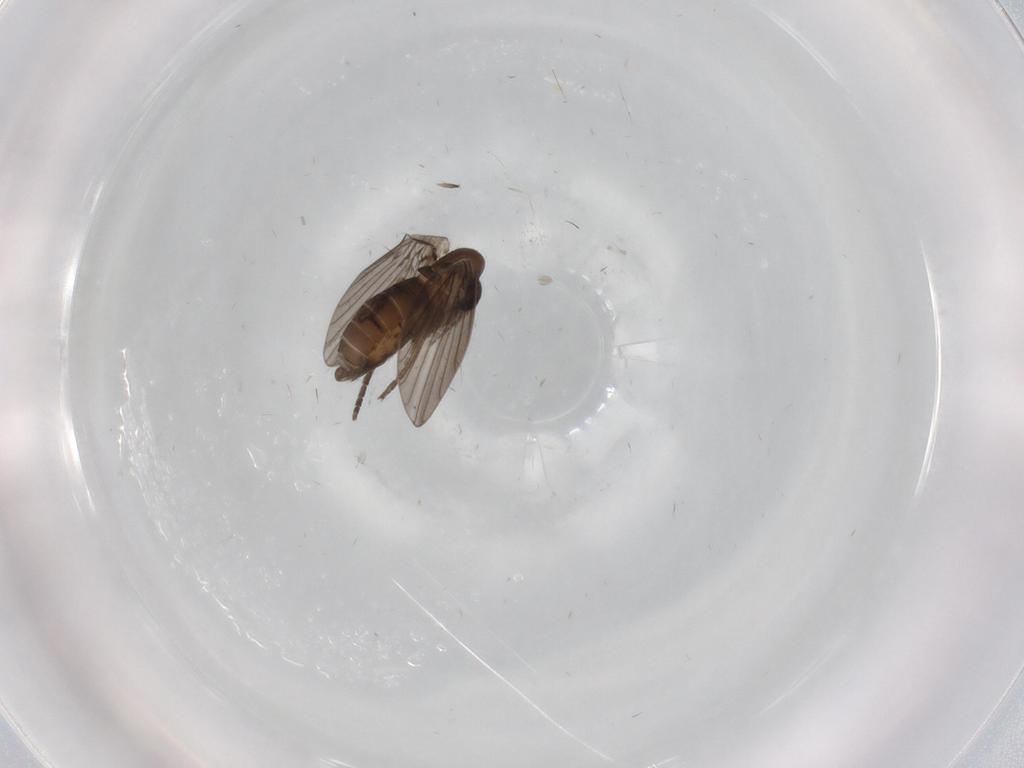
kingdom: Animalia
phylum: Arthropoda
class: Insecta
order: Diptera
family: Psychodidae
